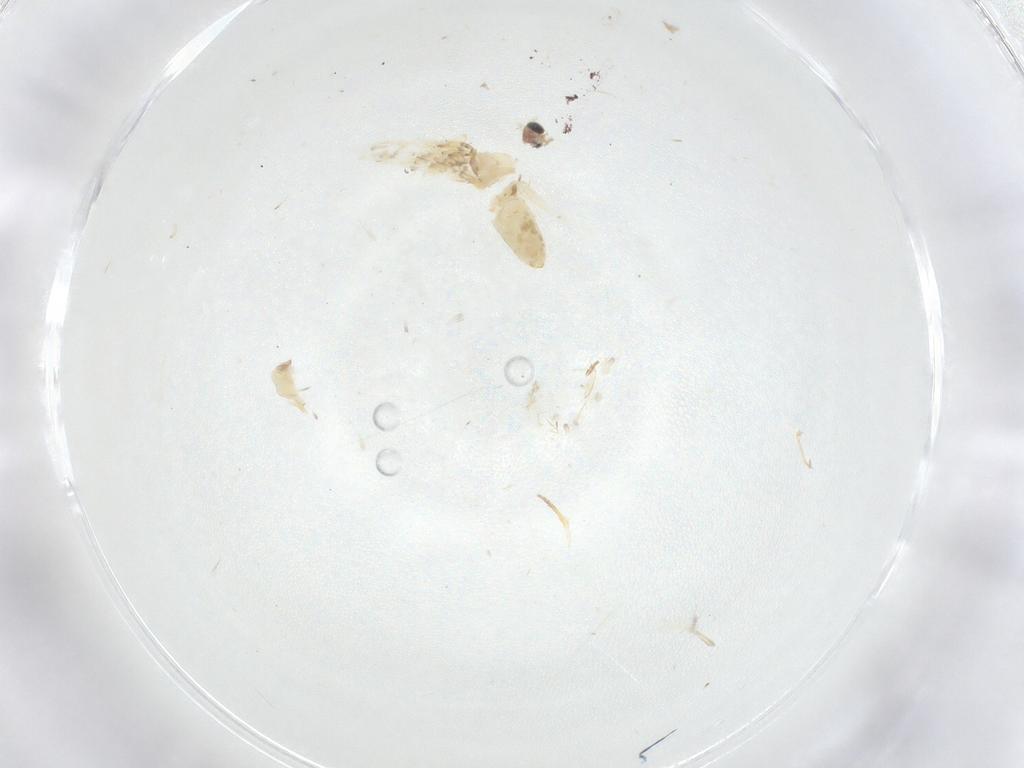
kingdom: Animalia
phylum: Arthropoda
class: Insecta
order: Lepidoptera
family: Crambidae
